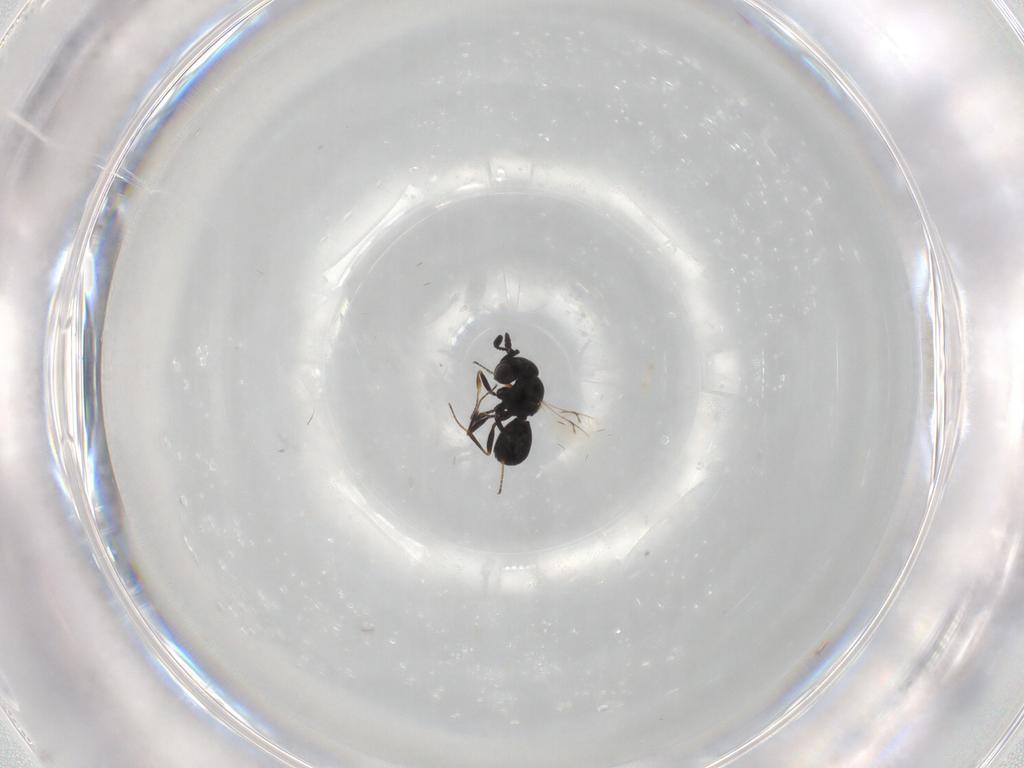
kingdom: Animalia
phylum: Arthropoda
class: Insecta
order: Hymenoptera
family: Scelionidae
